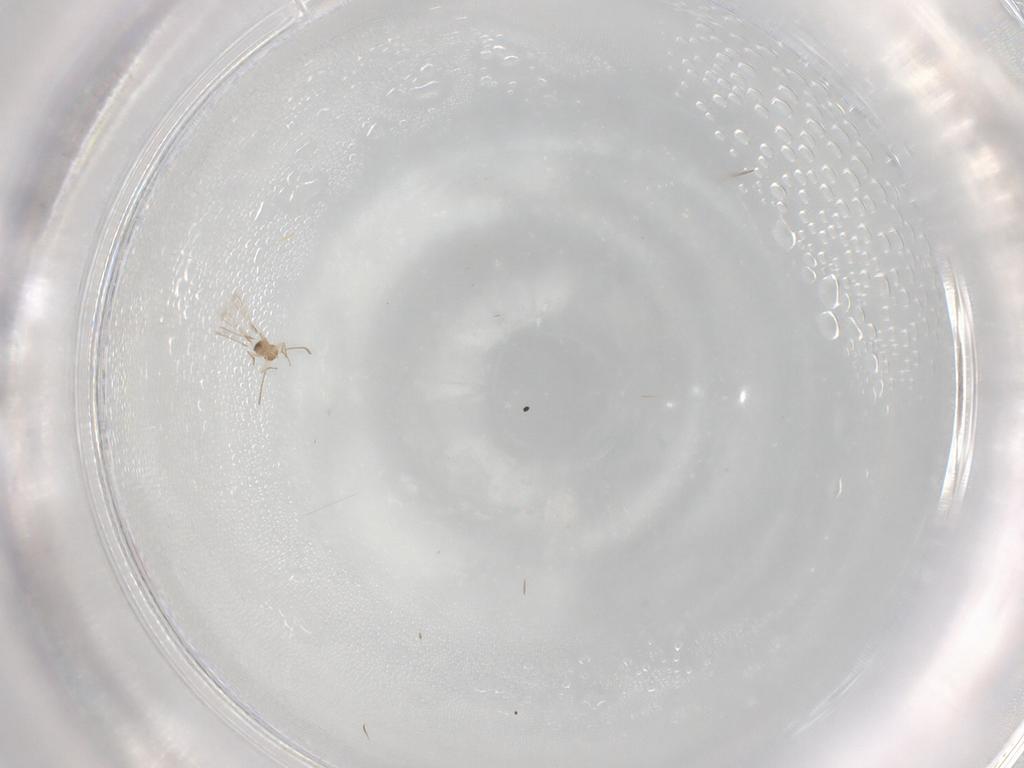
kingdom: Animalia
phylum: Arthropoda
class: Insecta
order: Hymenoptera
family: Mymaridae
